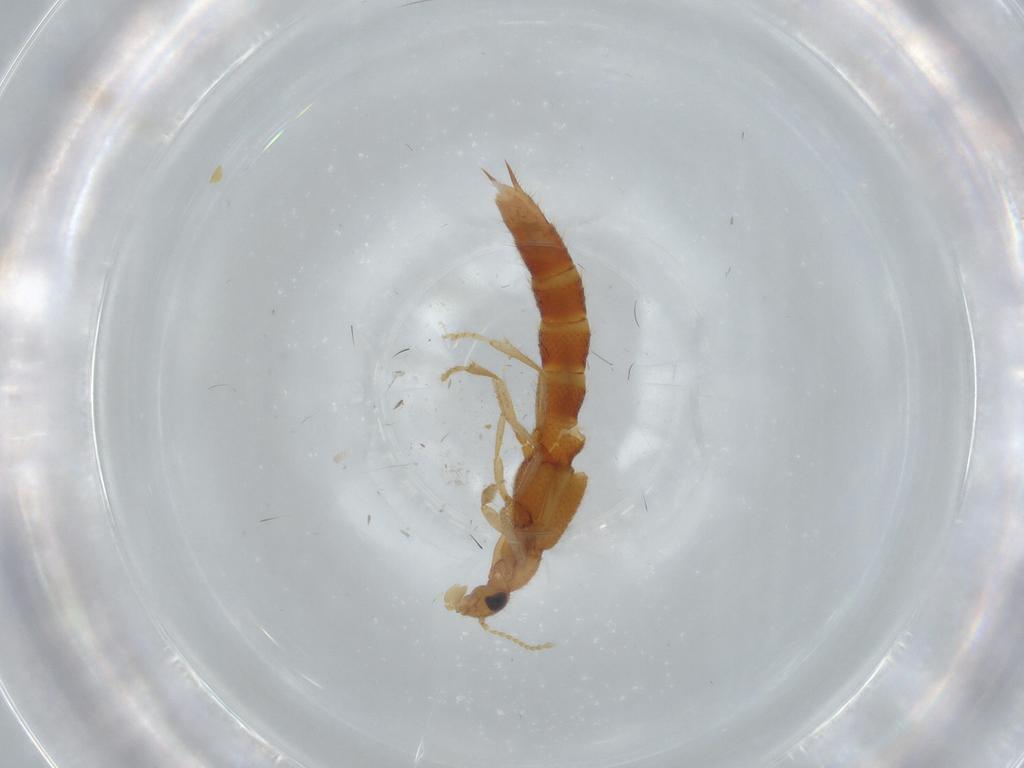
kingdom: Animalia
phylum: Arthropoda
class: Insecta
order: Coleoptera
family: Staphylinidae
